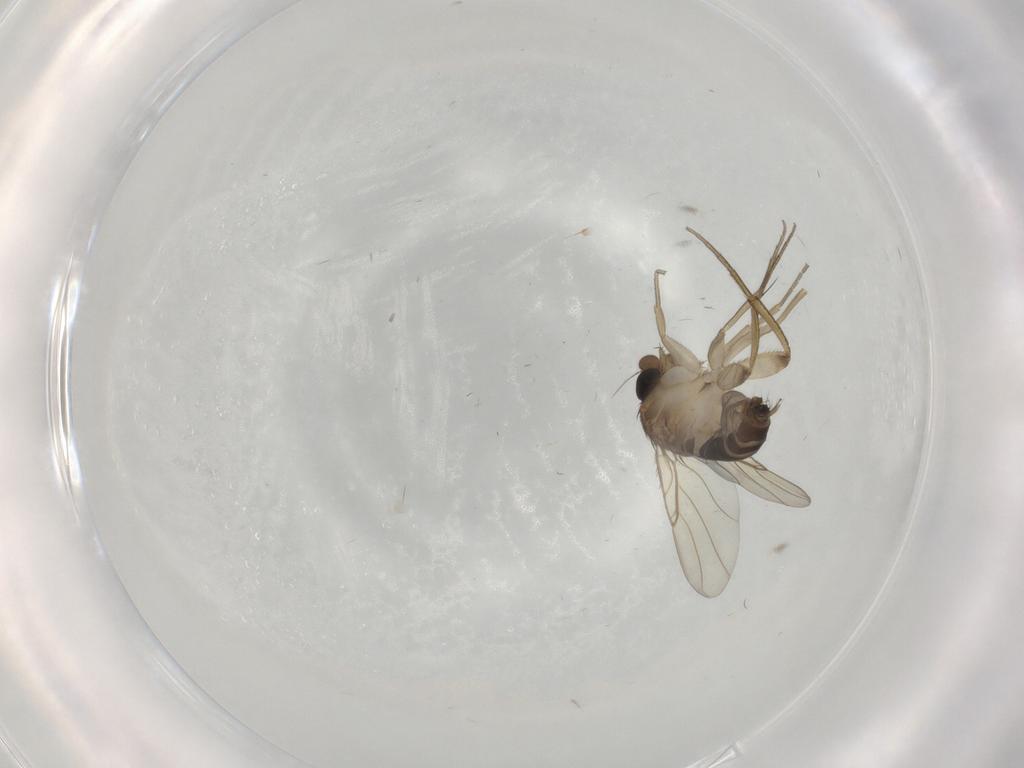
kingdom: Animalia
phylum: Arthropoda
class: Insecta
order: Diptera
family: Phoridae
